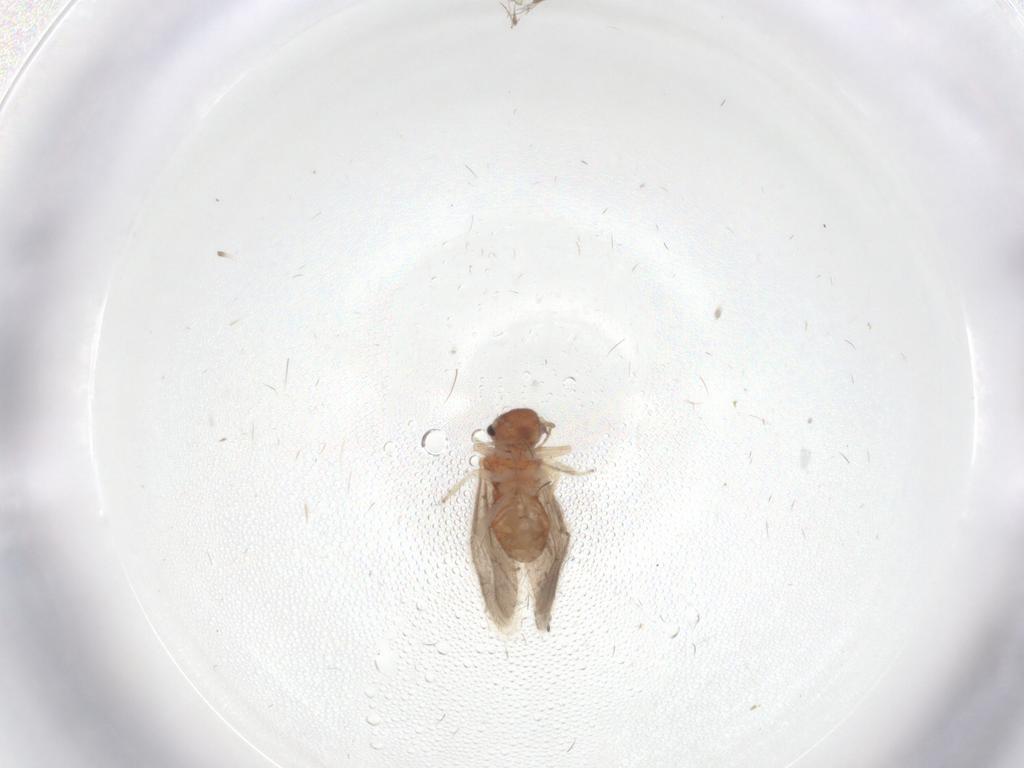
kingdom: Animalia
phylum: Arthropoda
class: Insecta
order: Psocodea
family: Archipsocidae
